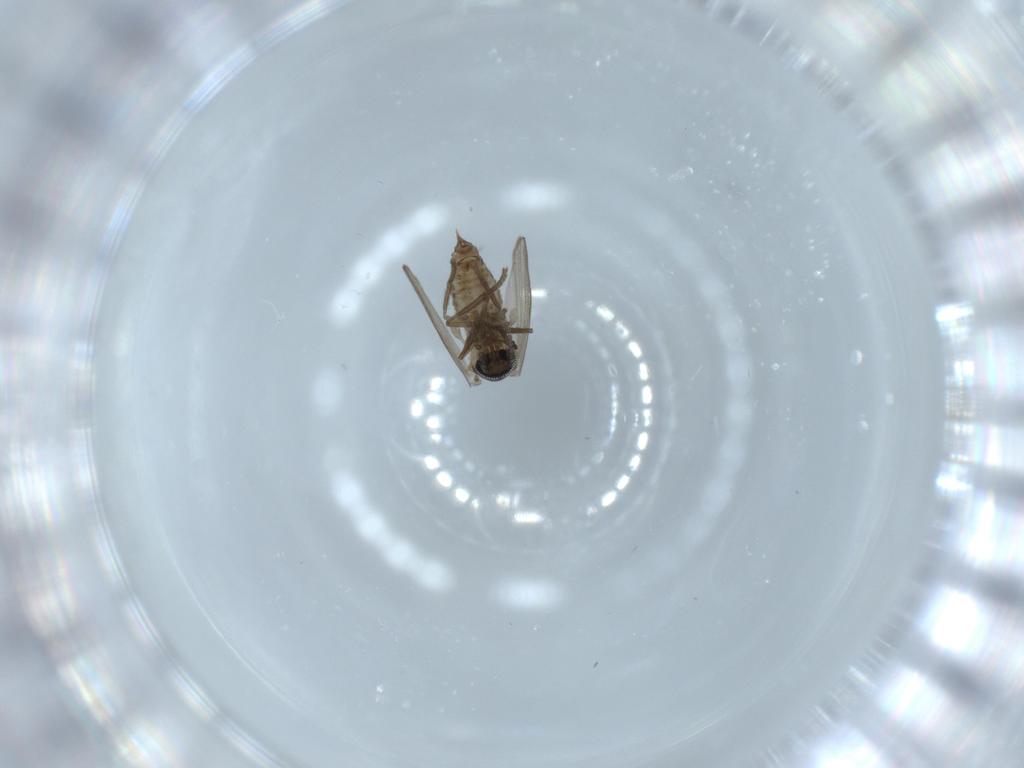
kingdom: Animalia
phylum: Arthropoda
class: Insecta
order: Diptera
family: Psychodidae
